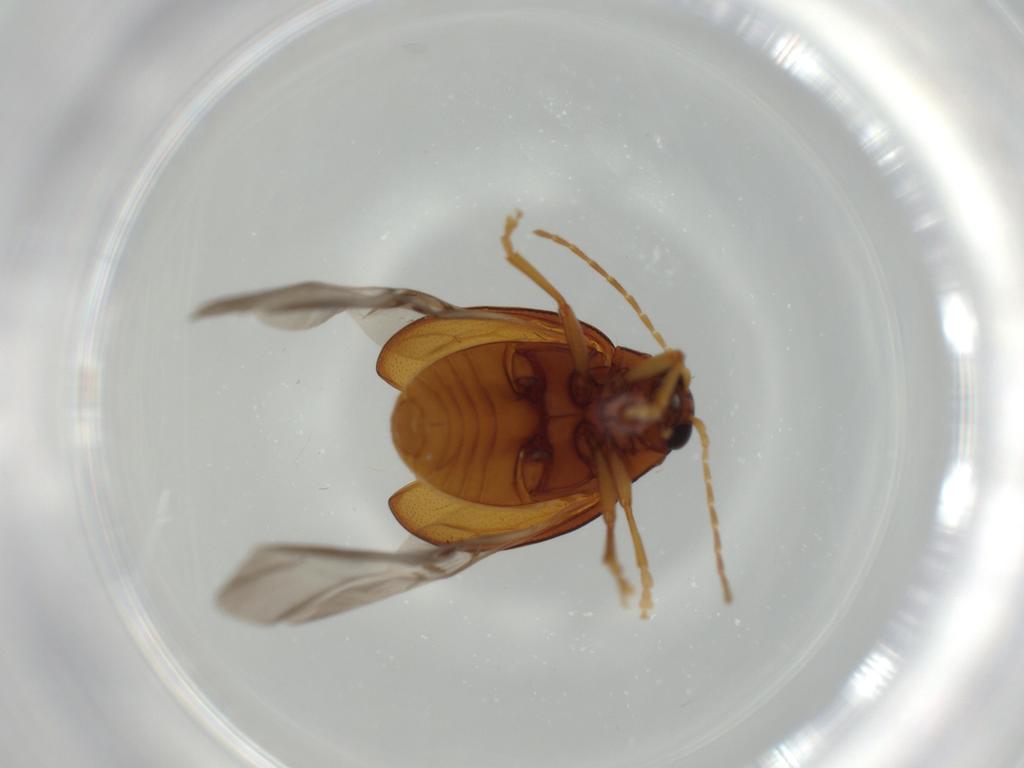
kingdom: Animalia
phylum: Arthropoda
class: Insecta
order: Coleoptera
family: Chrysomelidae
